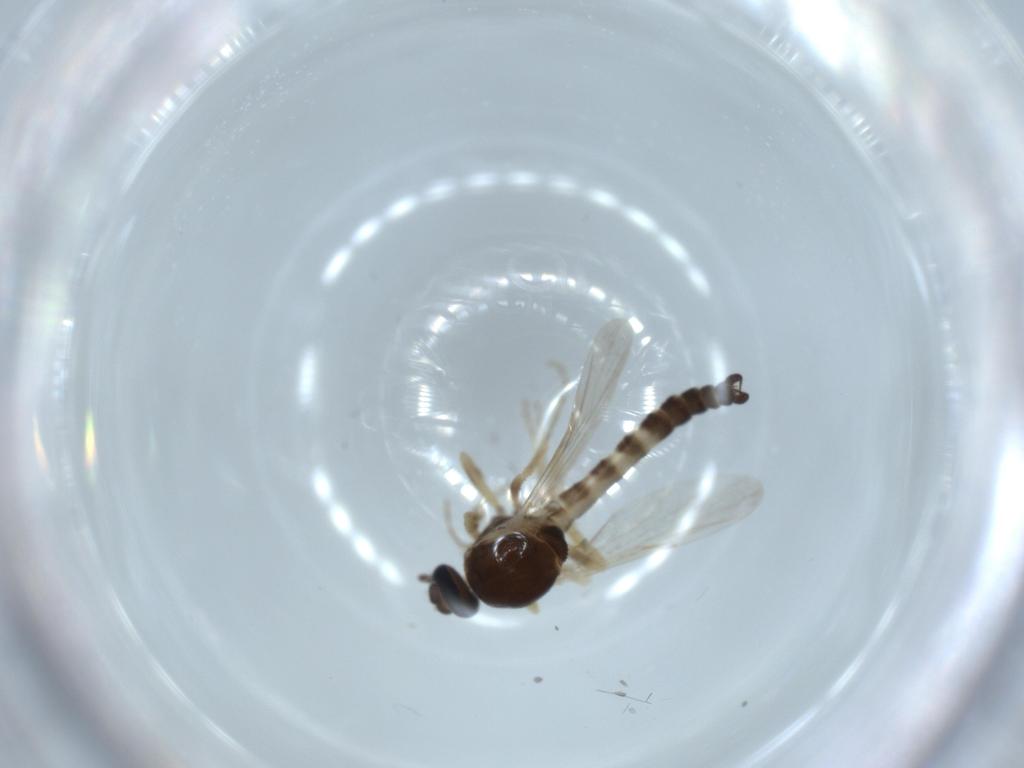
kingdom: Animalia
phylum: Arthropoda
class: Insecta
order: Diptera
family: Ceratopogonidae
